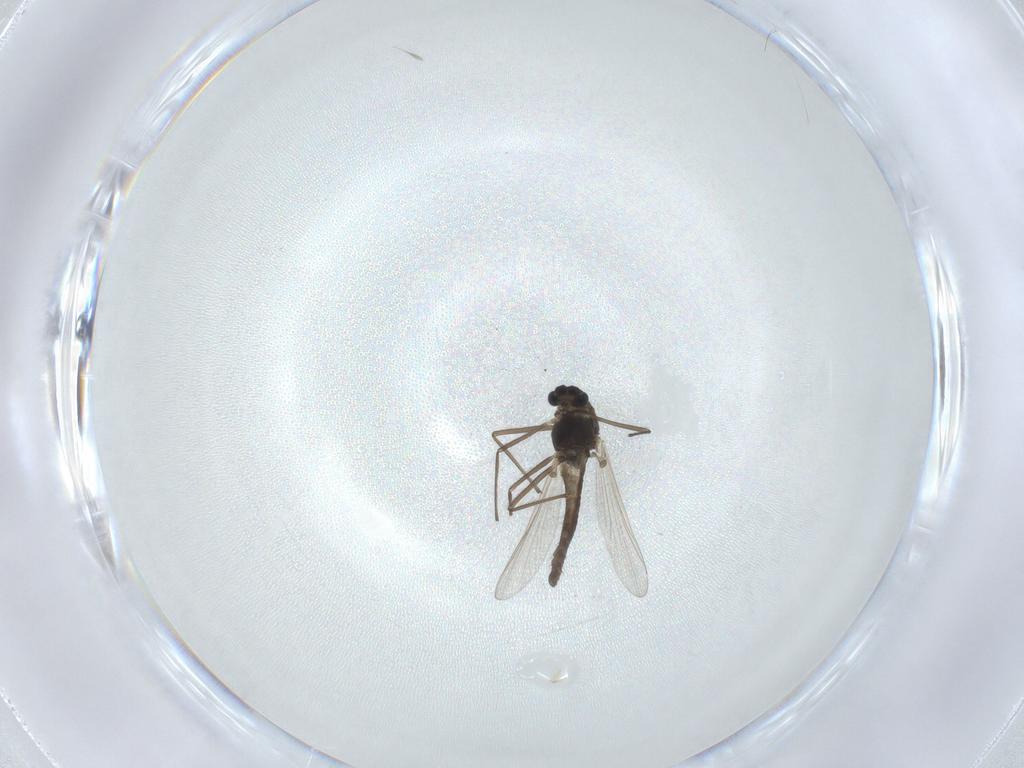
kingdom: Animalia
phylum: Arthropoda
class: Insecta
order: Diptera
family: Chironomidae
